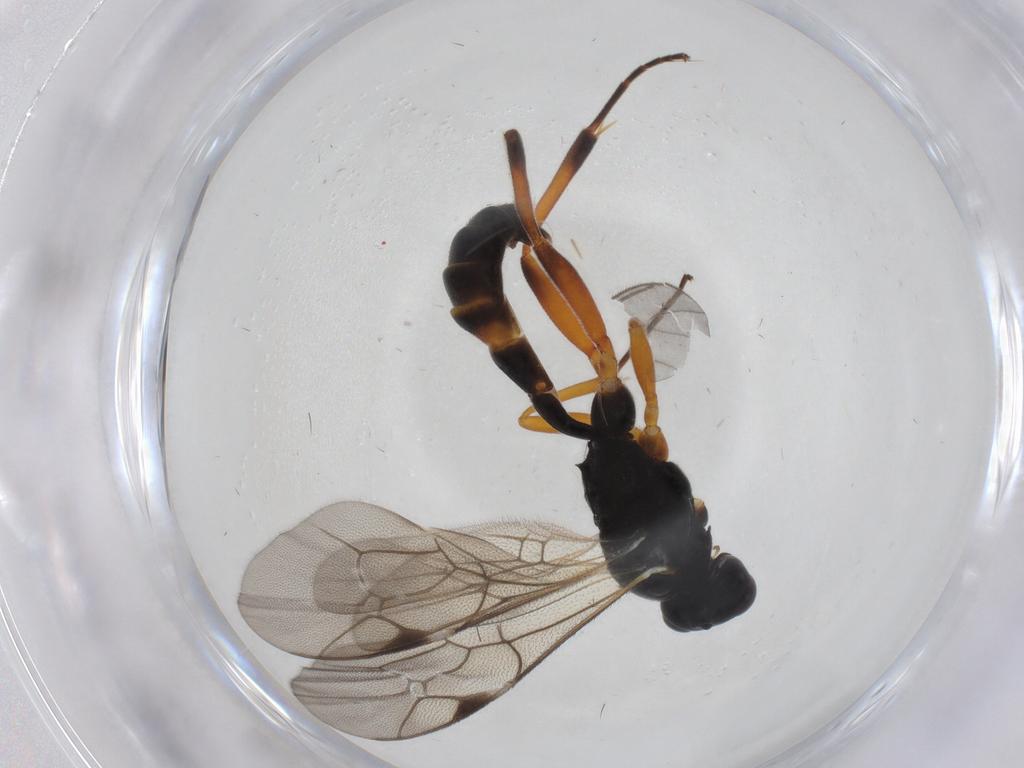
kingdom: Animalia
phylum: Arthropoda
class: Insecta
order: Hymenoptera
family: Ichneumonidae
